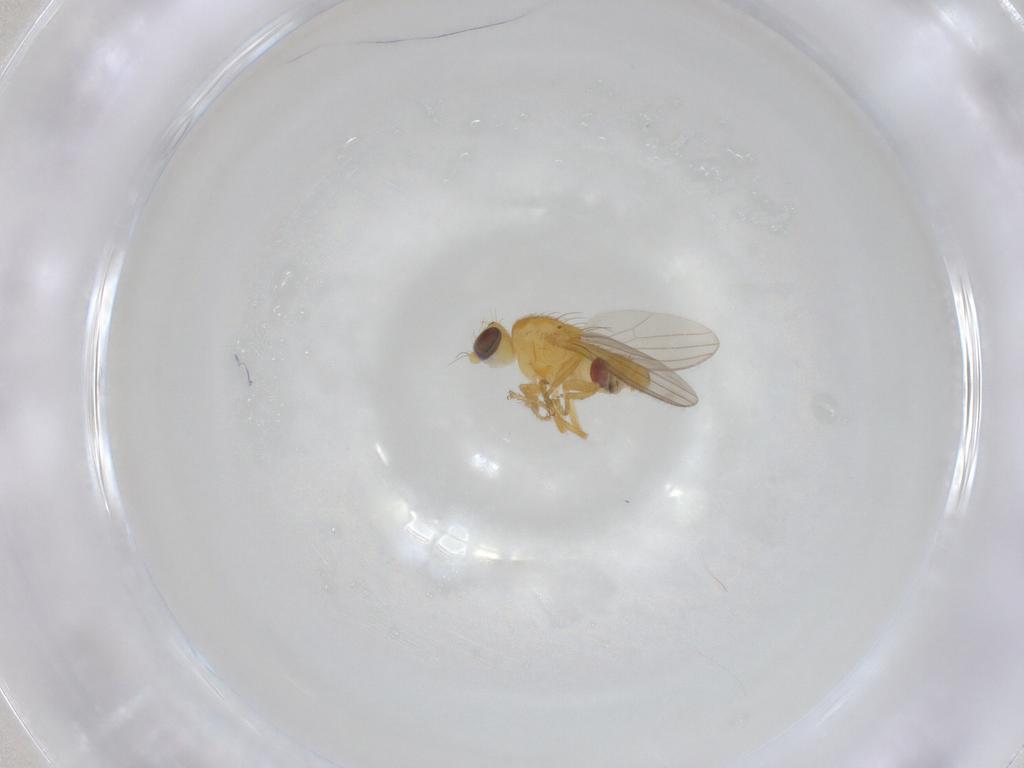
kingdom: Animalia
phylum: Arthropoda
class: Insecta
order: Diptera
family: Chyromyidae
